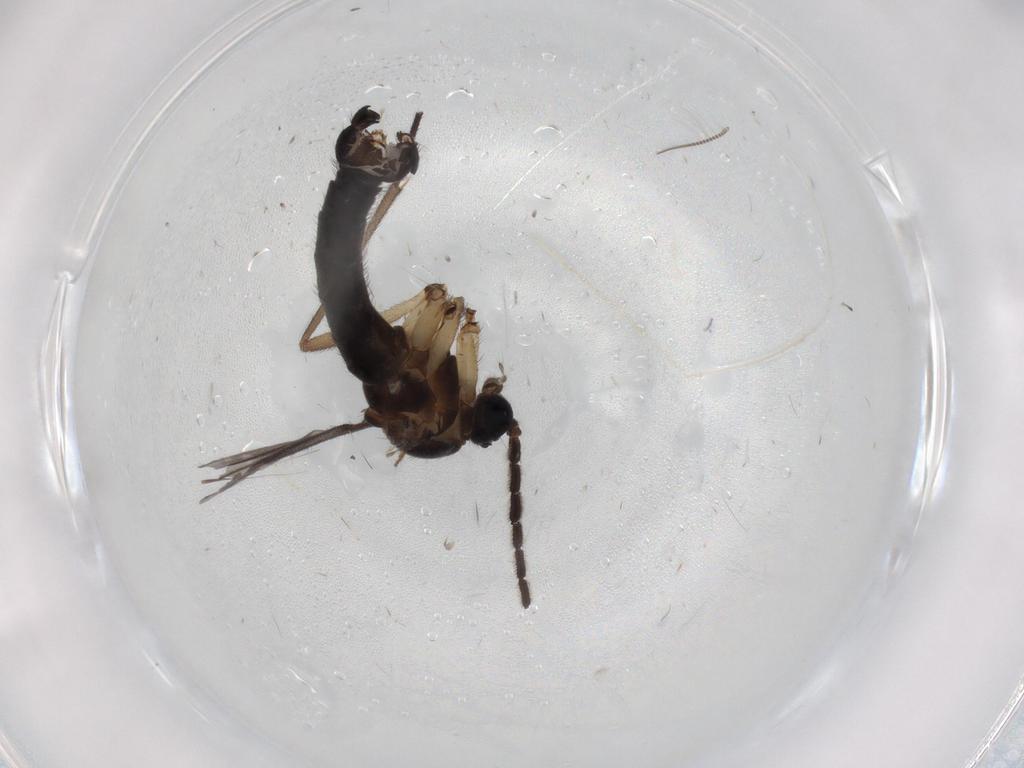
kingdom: Animalia
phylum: Arthropoda
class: Insecta
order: Diptera
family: Sciaridae
